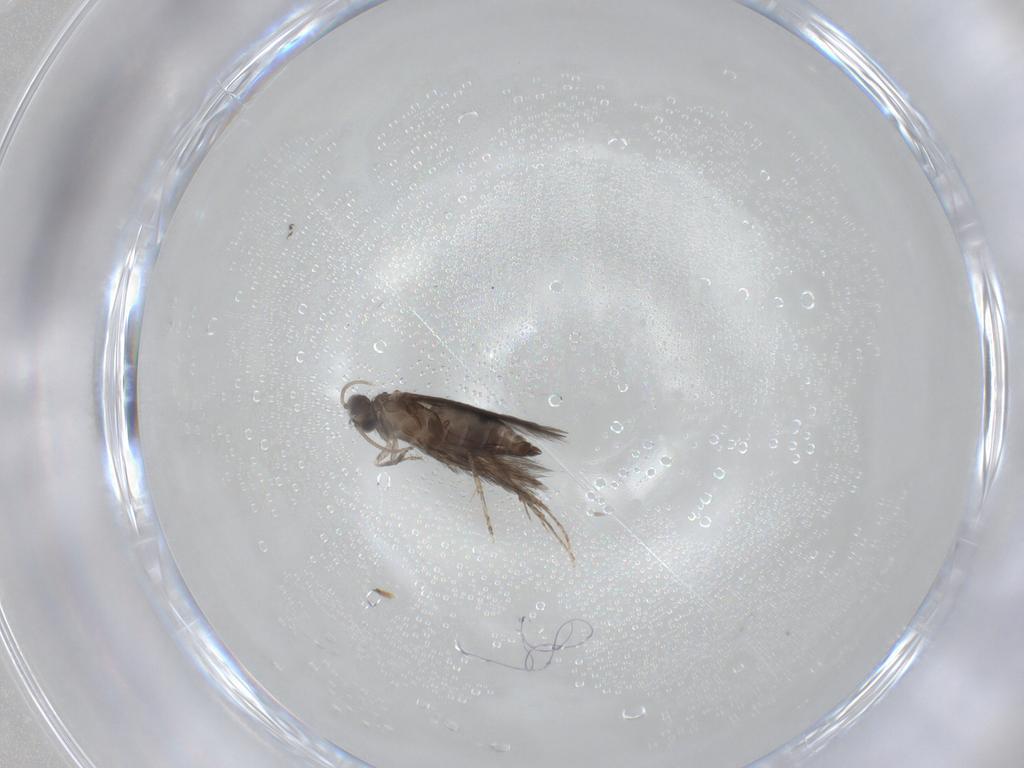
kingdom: Animalia
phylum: Arthropoda
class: Insecta
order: Trichoptera
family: Hydroptilidae
